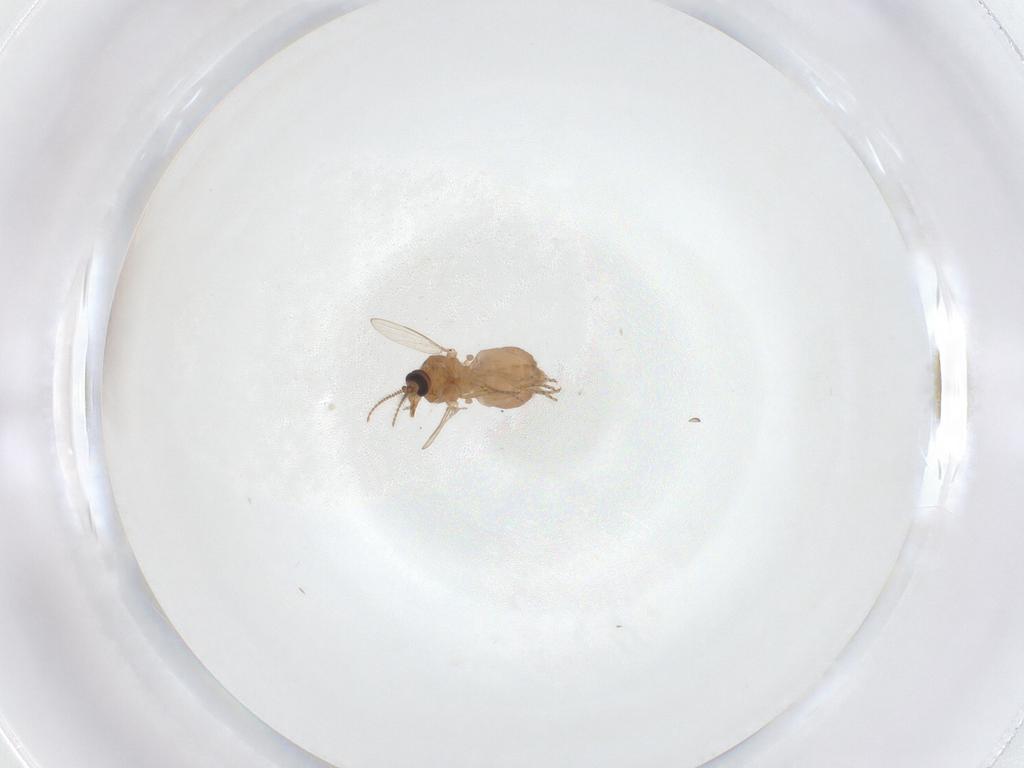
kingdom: Animalia
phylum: Arthropoda
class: Insecta
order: Diptera
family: Ceratopogonidae
